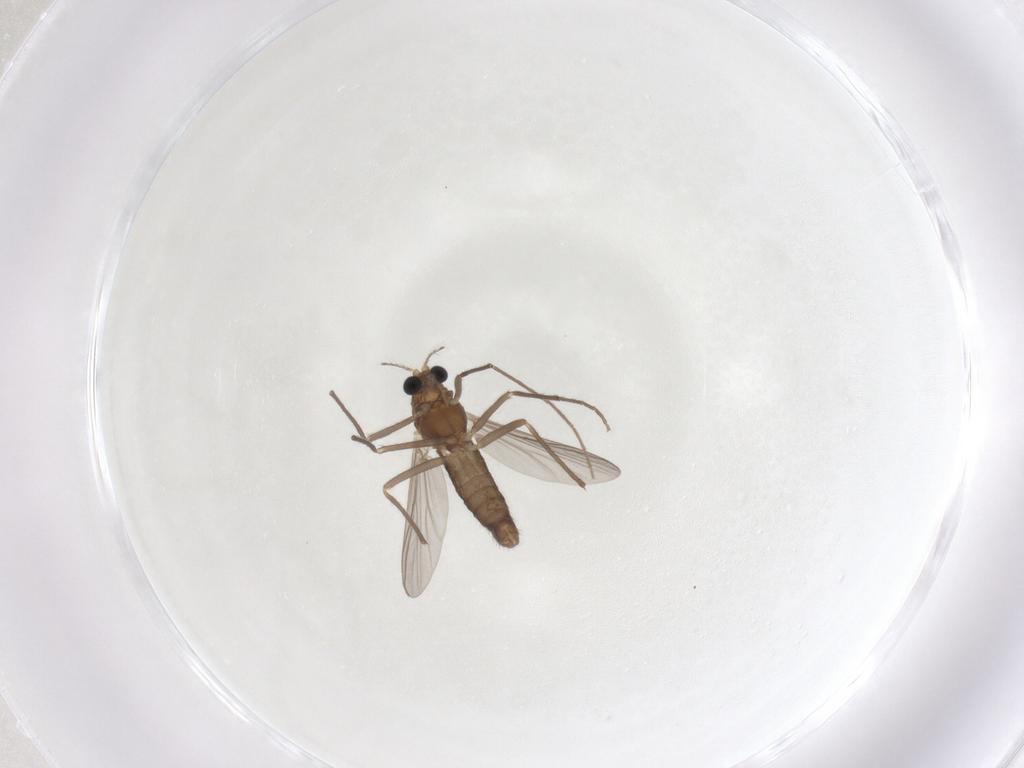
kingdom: Animalia
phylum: Arthropoda
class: Insecta
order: Diptera
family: Chironomidae
